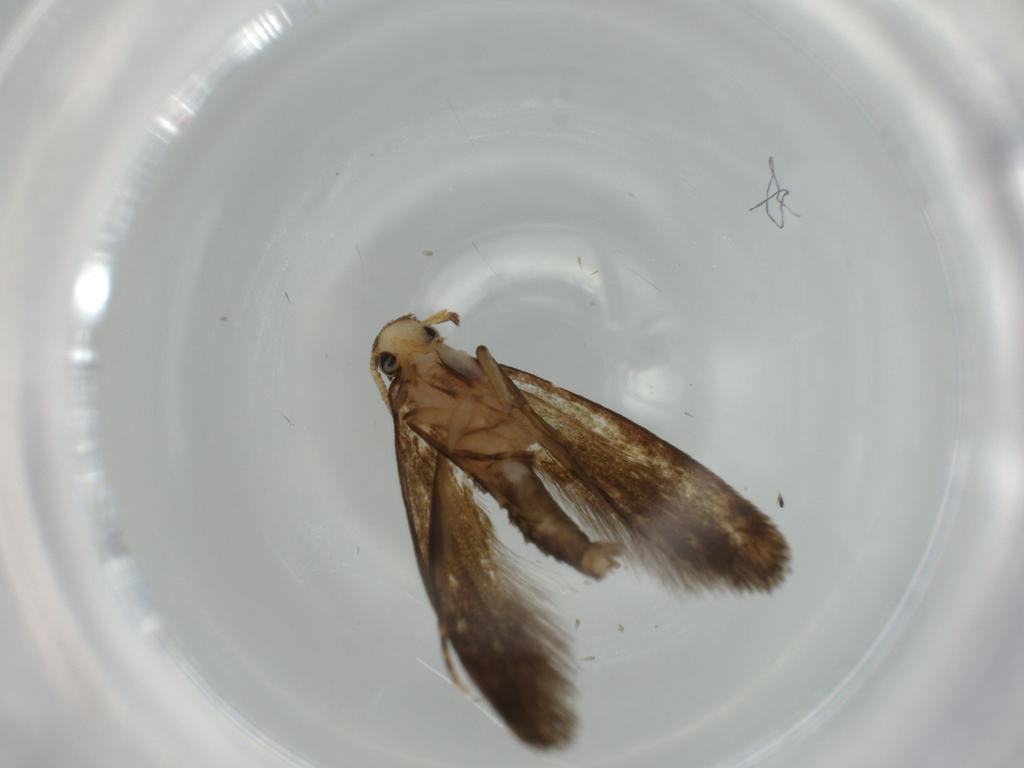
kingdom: Animalia
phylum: Arthropoda
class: Insecta
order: Lepidoptera
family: Tineidae
